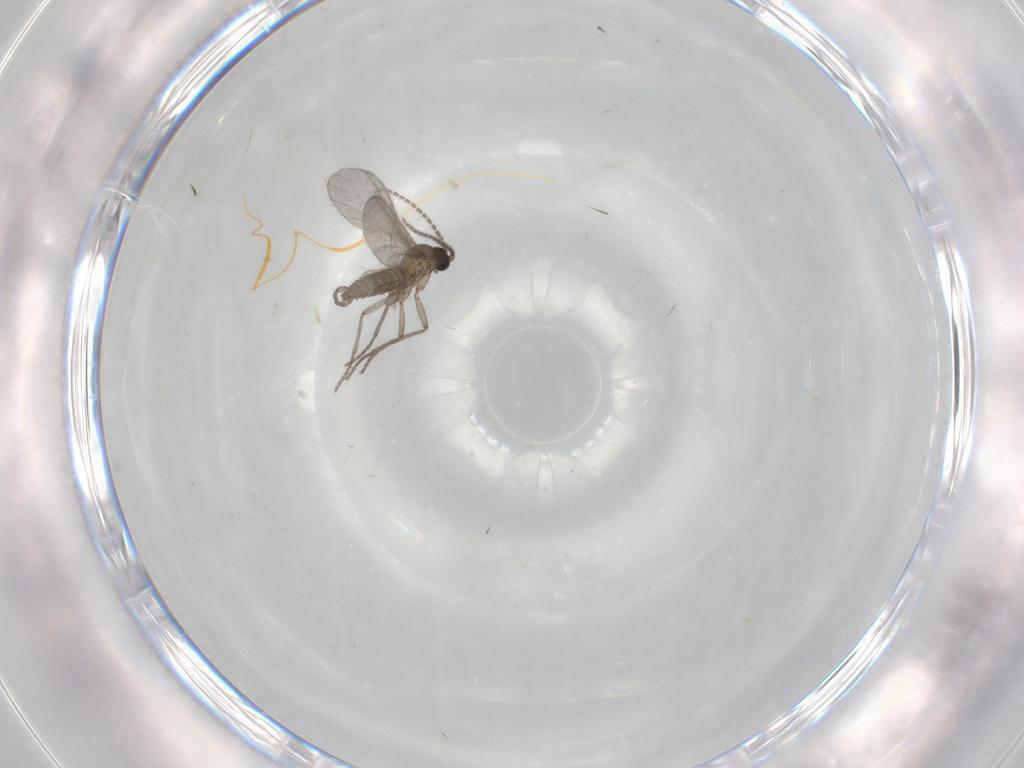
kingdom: Animalia
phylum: Arthropoda
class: Insecta
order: Diptera
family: Sciaridae
